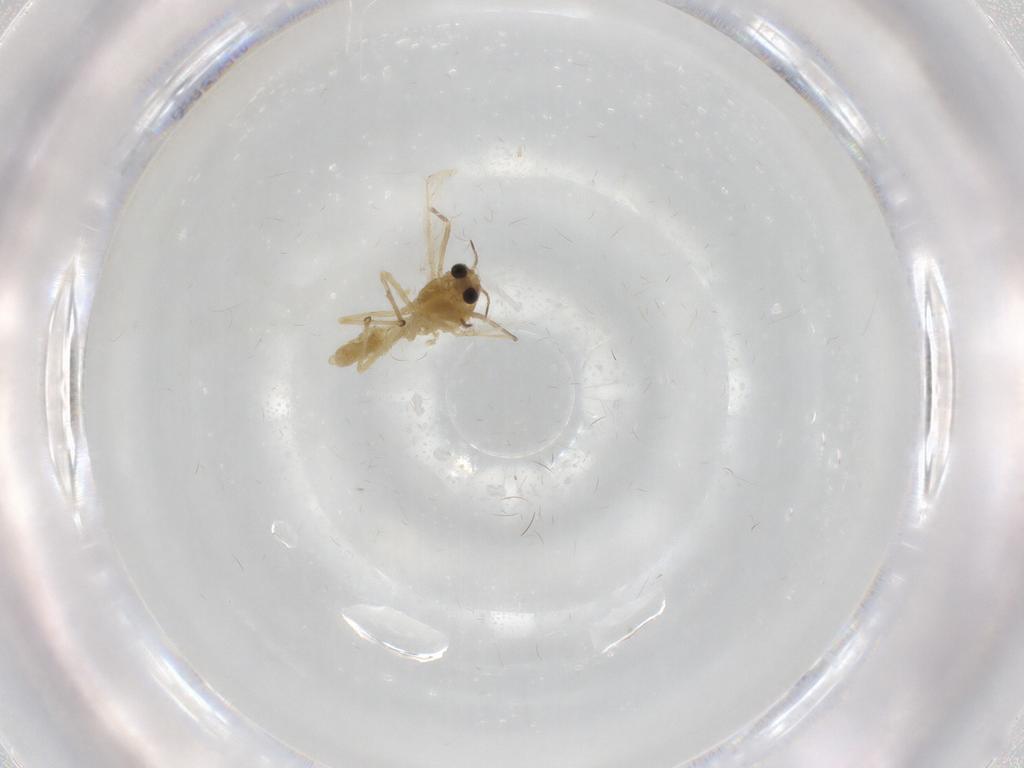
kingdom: Animalia
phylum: Arthropoda
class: Insecta
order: Diptera
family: Chironomidae
